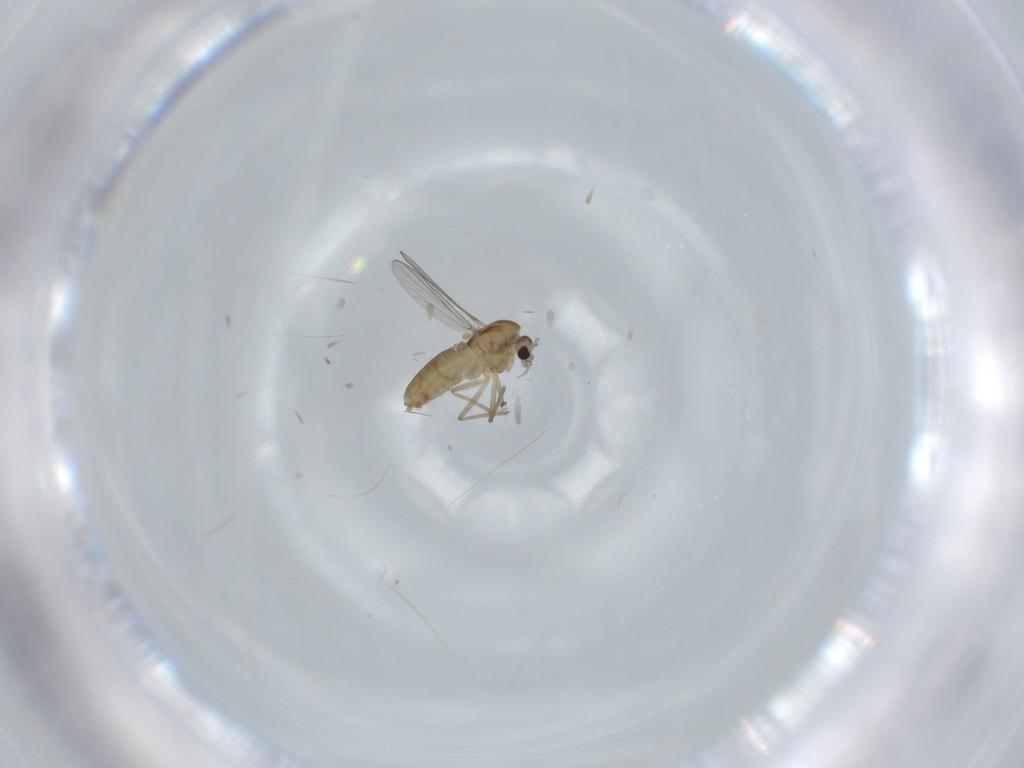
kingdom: Animalia
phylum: Arthropoda
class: Insecta
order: Diptera
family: Chironomidae
